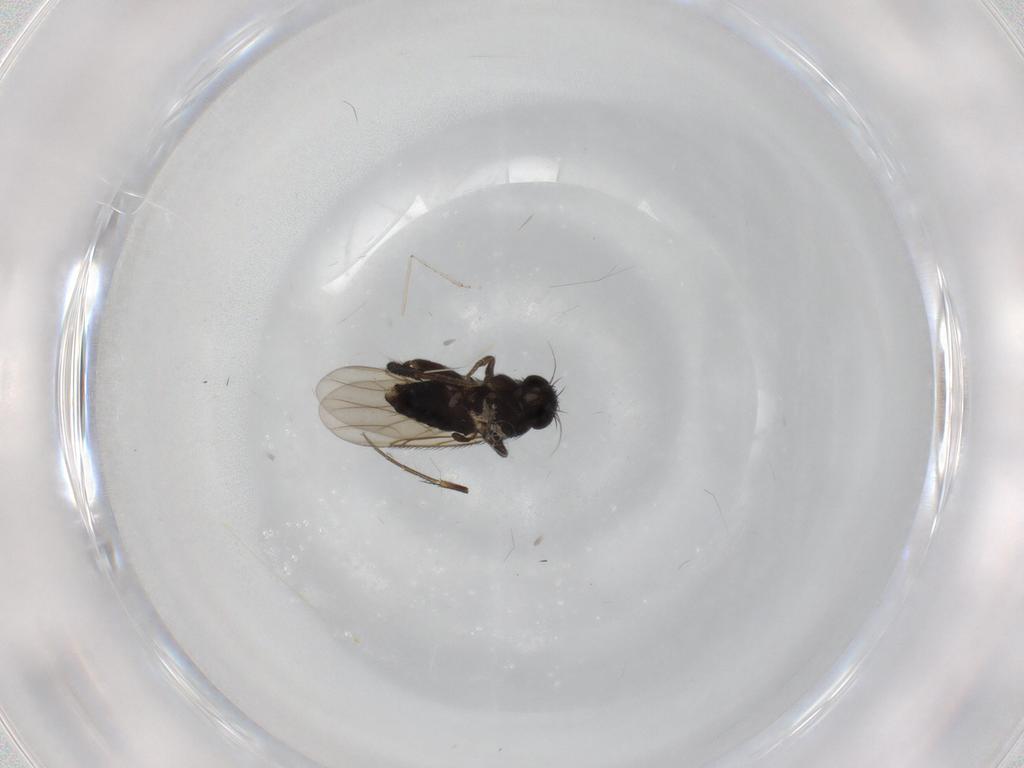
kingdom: Animalia
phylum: Arthropoda
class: Insecta
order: Diptera
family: Phoridae
